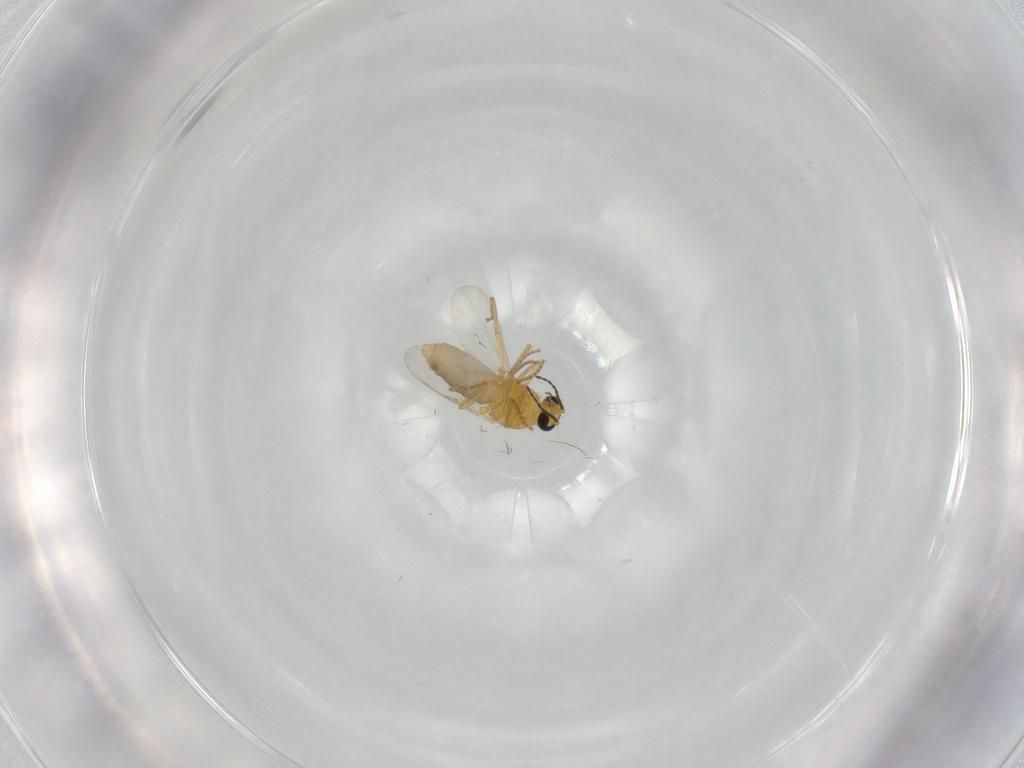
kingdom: Animalia
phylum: Arthropoda
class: Insecta
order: Diptera
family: Ceratopogonidae
